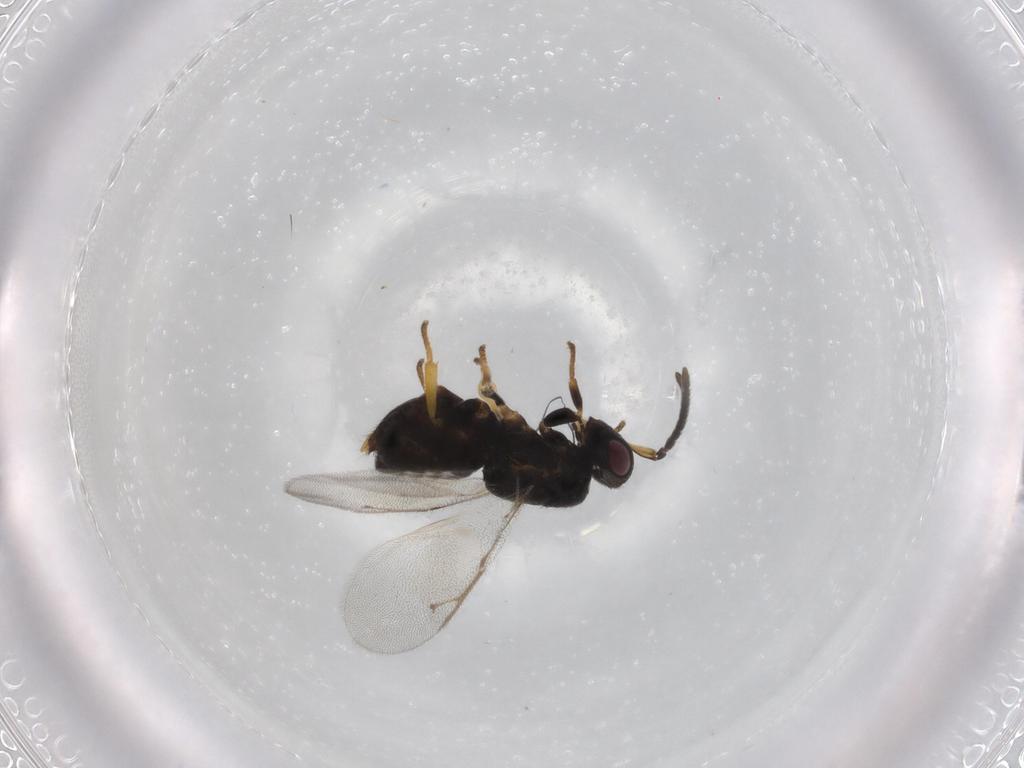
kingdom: Animalia
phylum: Arthropoda
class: Insecta
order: Hymenoptera
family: Tanaostigmatidae
